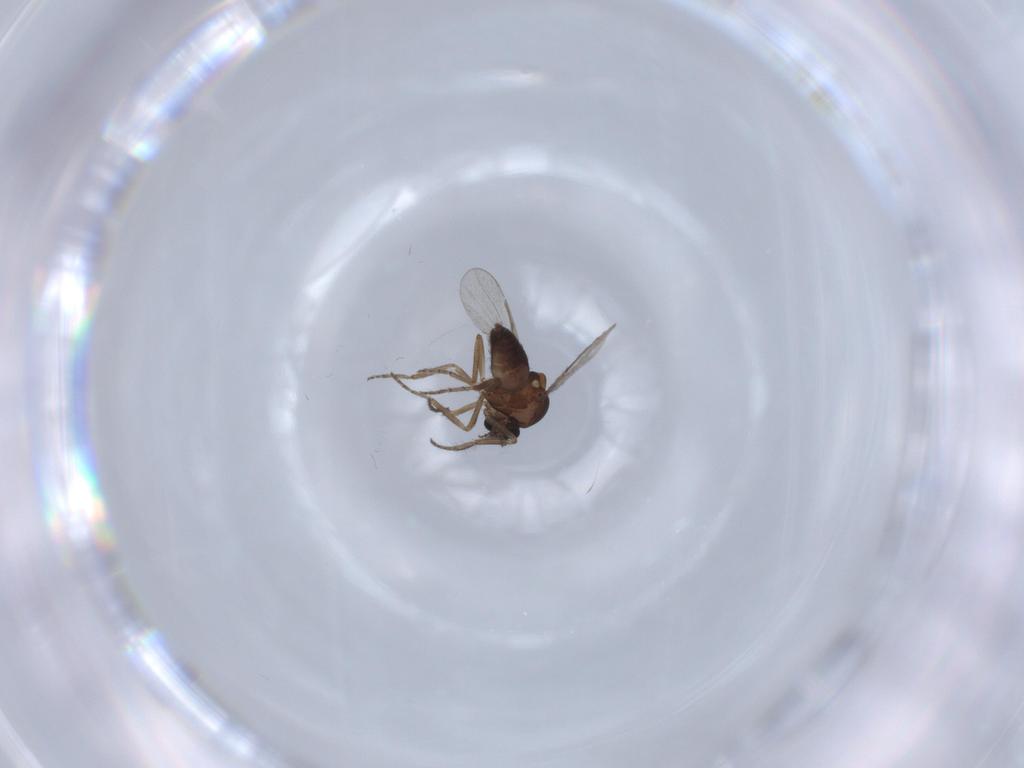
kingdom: Animalia
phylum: Arthropoda
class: Insecta
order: Diptera
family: Ceratopogonidae
